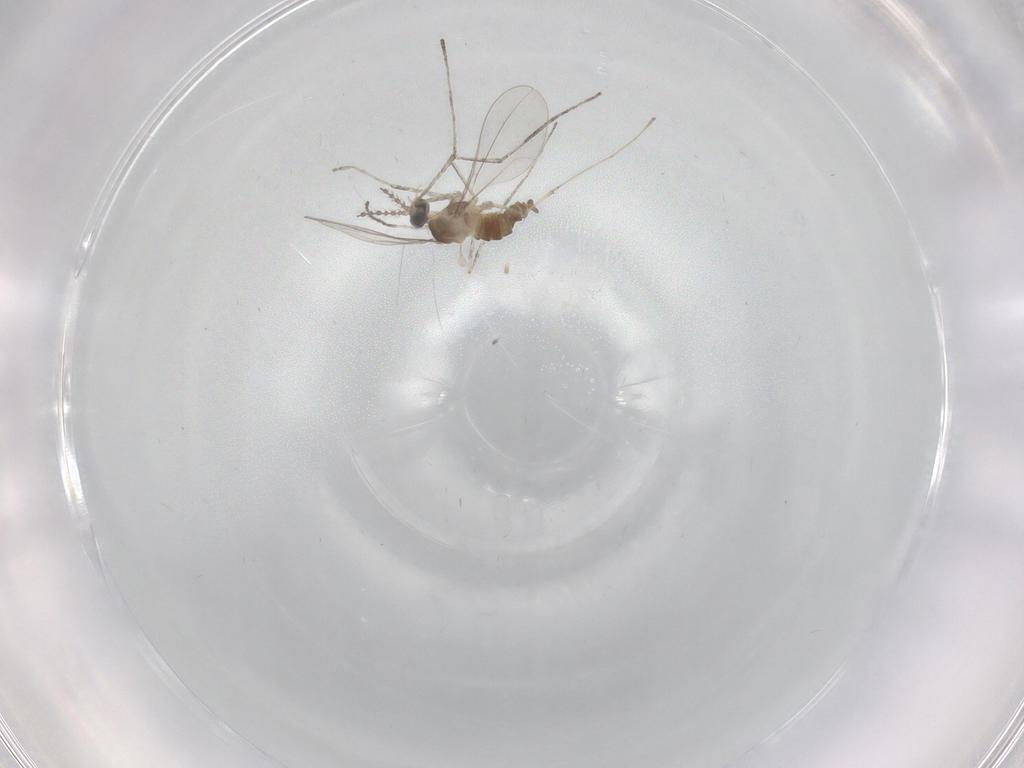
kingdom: Animalia
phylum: Arthropoda
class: Insecta
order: Diptera
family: Cecidomyiidae
